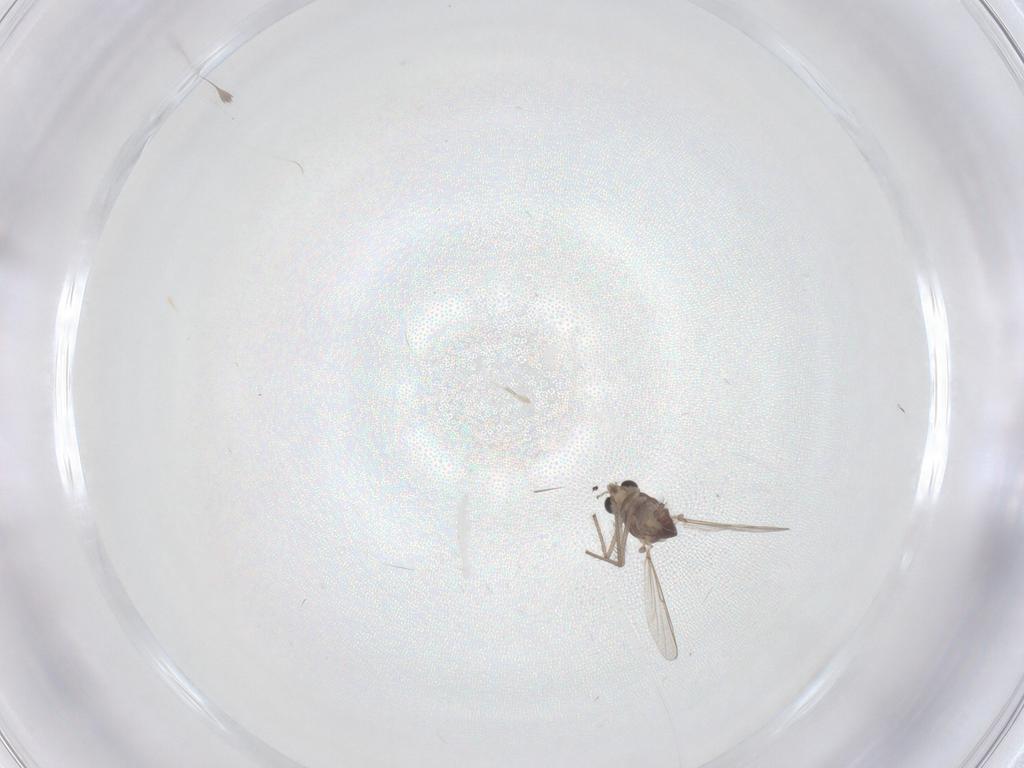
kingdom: Animalia
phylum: Arthropoda
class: Insecta
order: Diptera
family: Chironomidae
